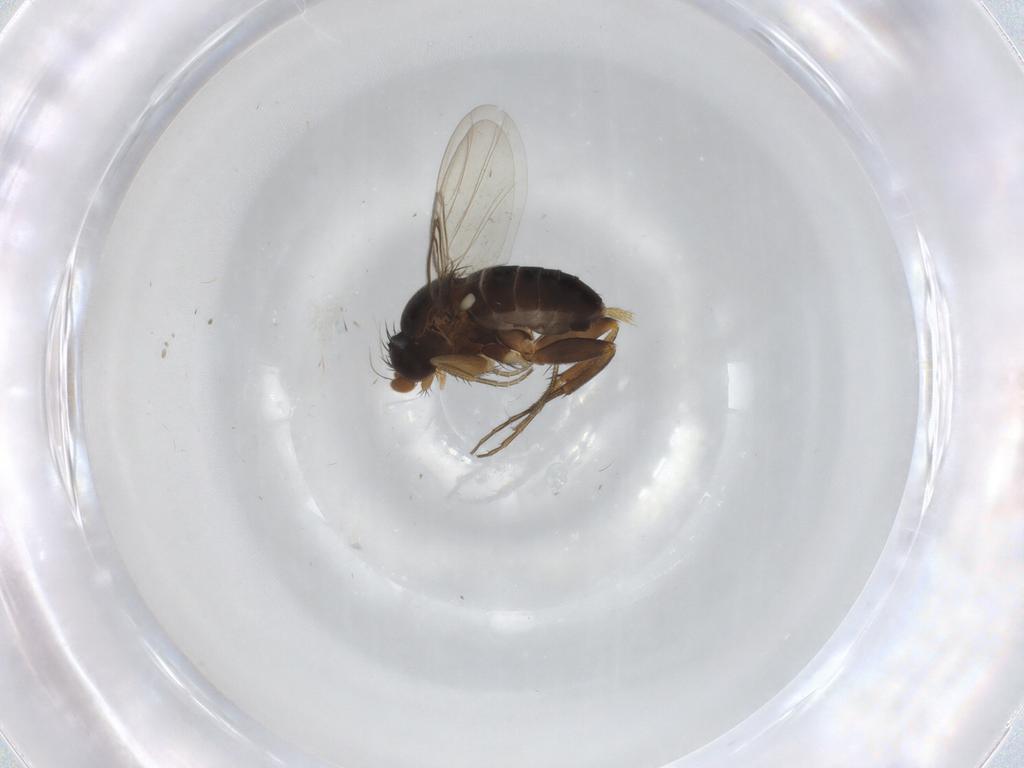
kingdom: Animalia
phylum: Arthropoda
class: Insecta
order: Diptera
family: Phoridae
